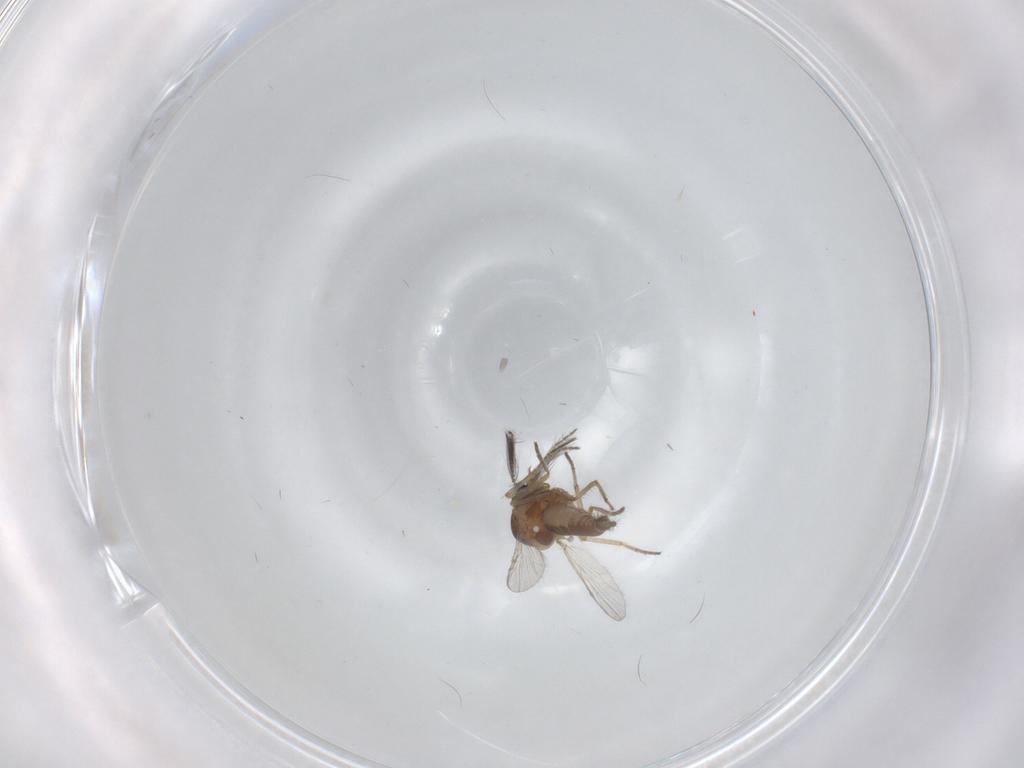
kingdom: Animalia
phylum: Arthropoda
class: Insecta
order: Diptera
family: Ceratopogonidae
